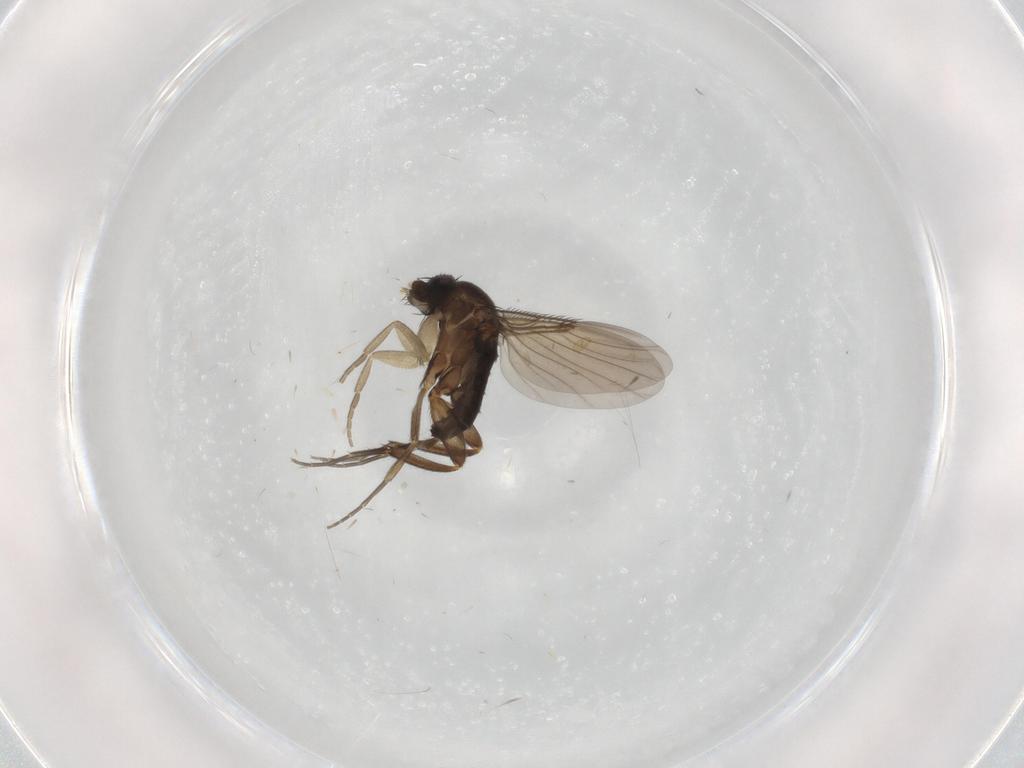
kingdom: Animalia
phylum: Arthropoda
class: Insecta
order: Diptera
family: Phoridae
